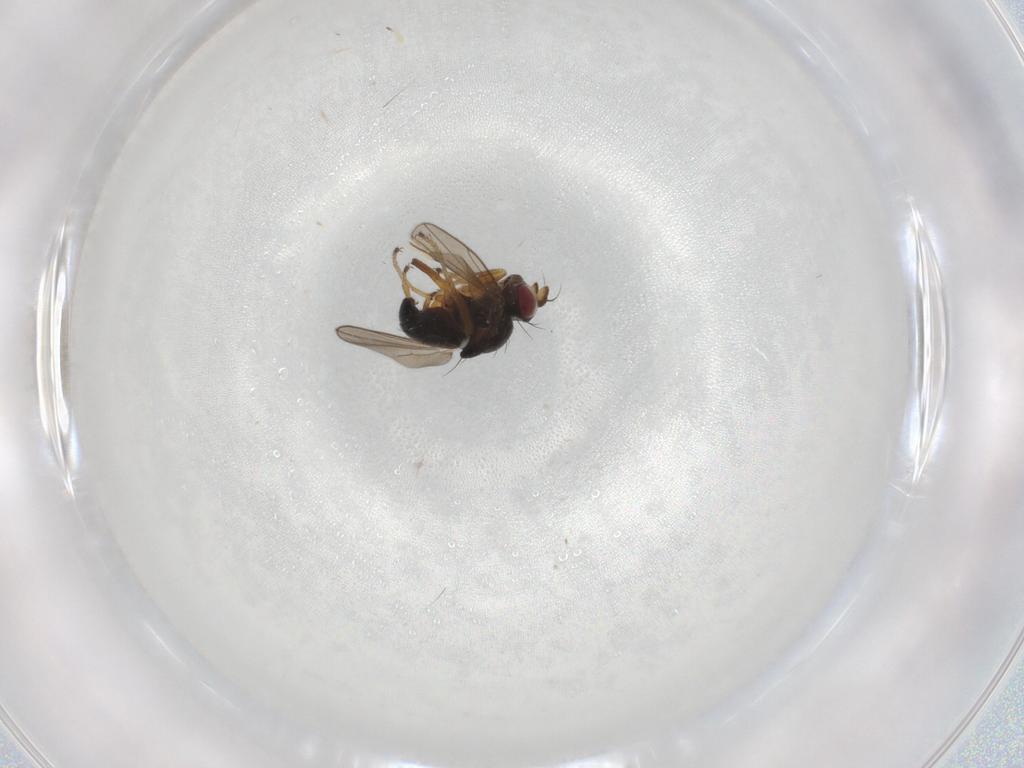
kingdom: Animalia
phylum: Arthropoda
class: Insecta
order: Diptera
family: Ephydridae
